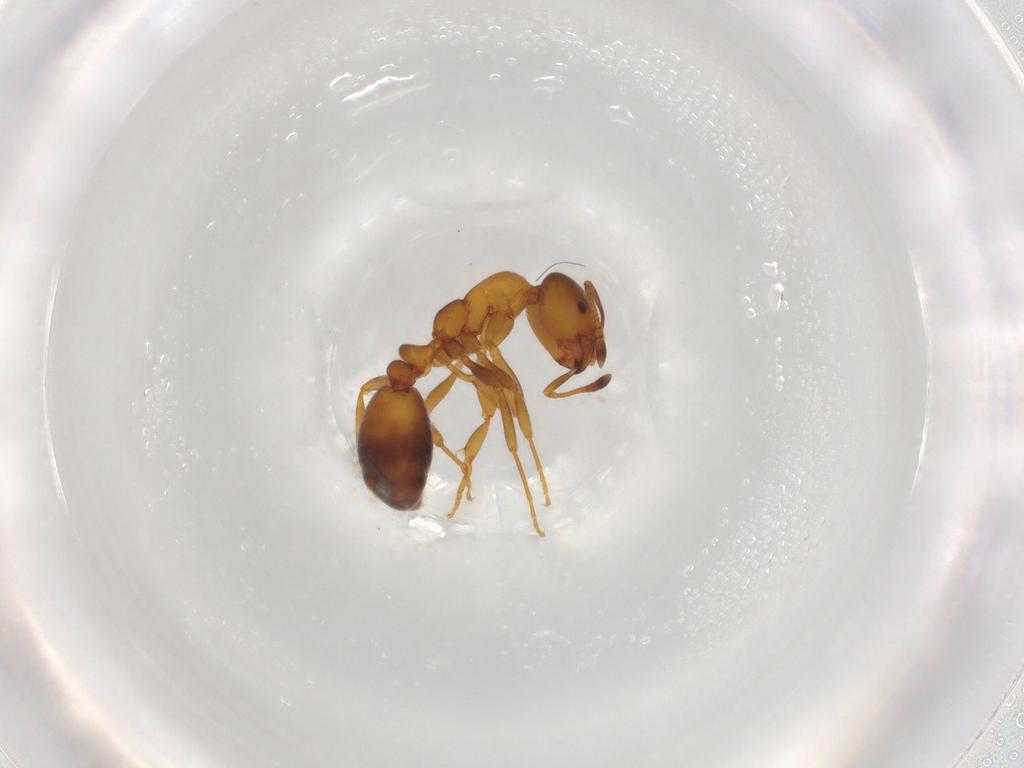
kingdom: Animalia
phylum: Arthropoda
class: Insecta
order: Hymenoptera
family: Formicidae
